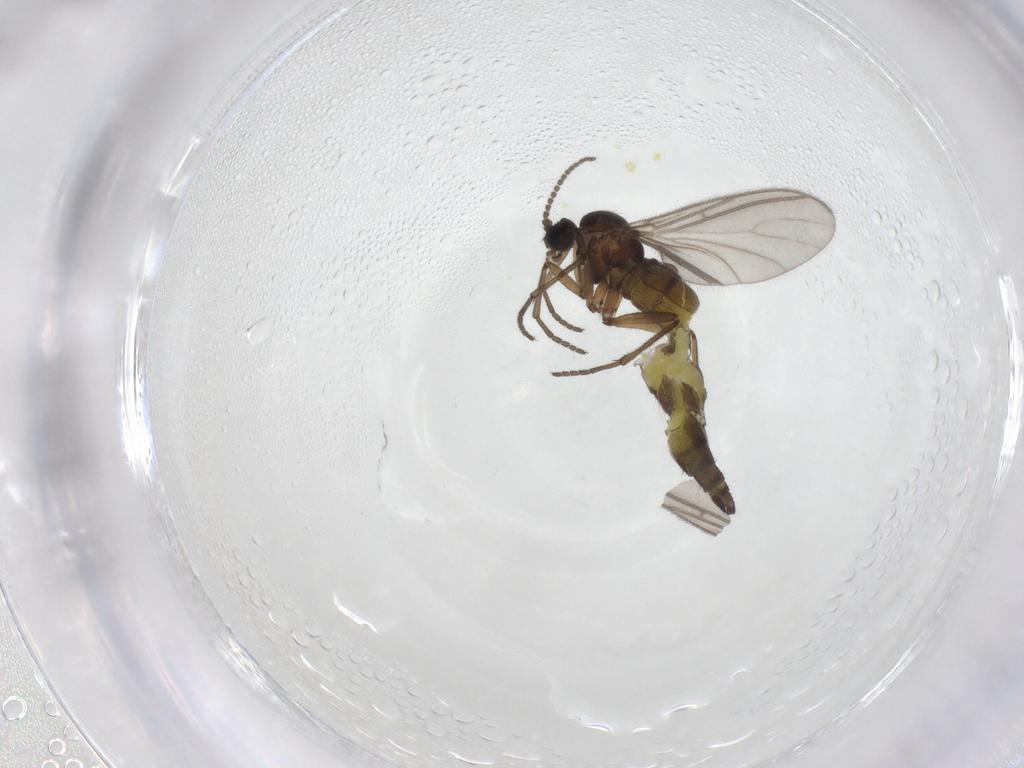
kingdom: Animalia
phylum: Arthropoda
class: Insecta
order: Diptera
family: Sciaridae
